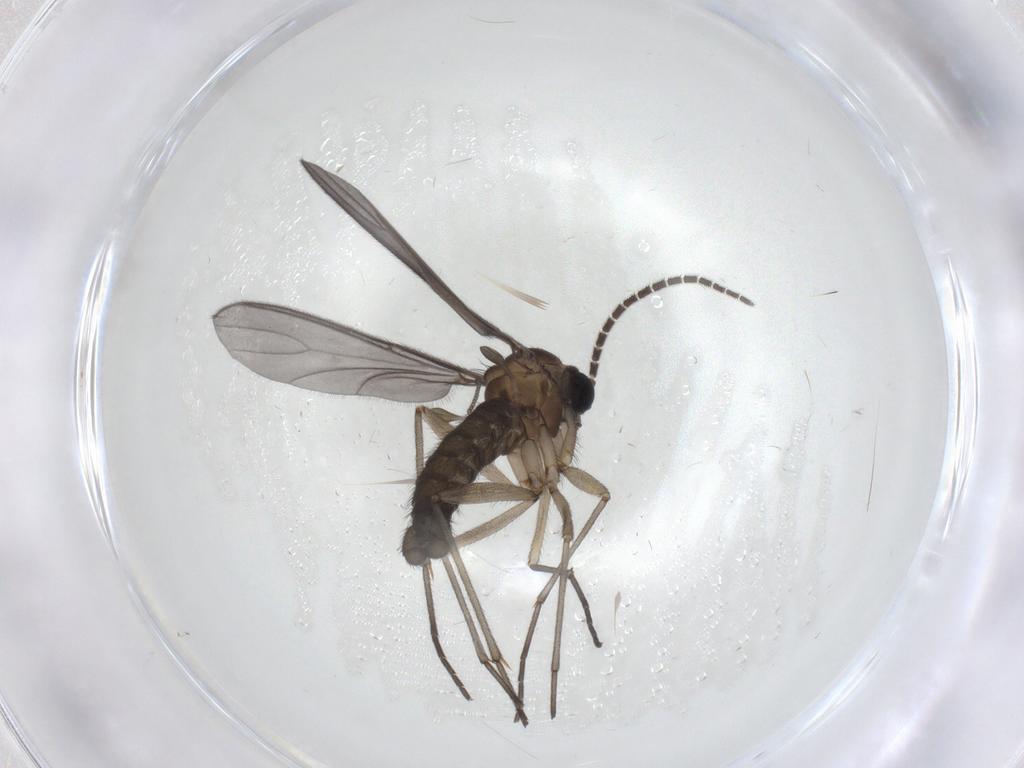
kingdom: Animalia
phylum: Arthropoda
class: Insecta
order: Diptera
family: Sciaridae
